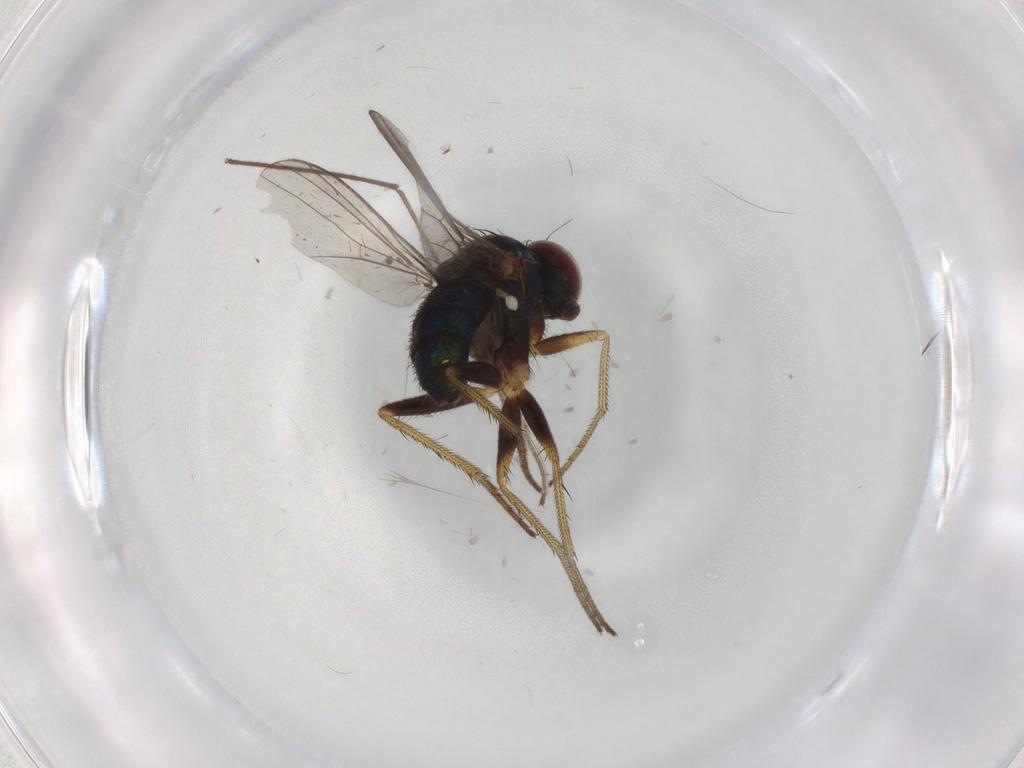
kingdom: Animalia
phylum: Arthropoda
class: Insecta
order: Diptera
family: Dolichopodidae
